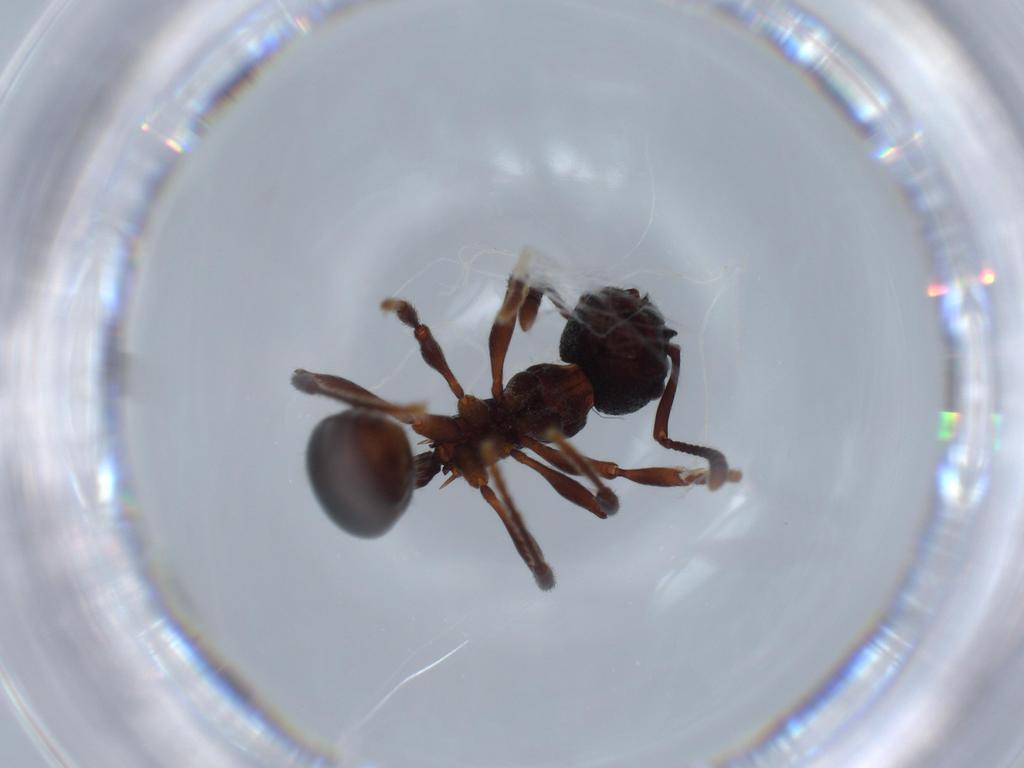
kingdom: Animalia
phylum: Arthropoda
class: Insecta
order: Hymenoptera
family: Formicidae
